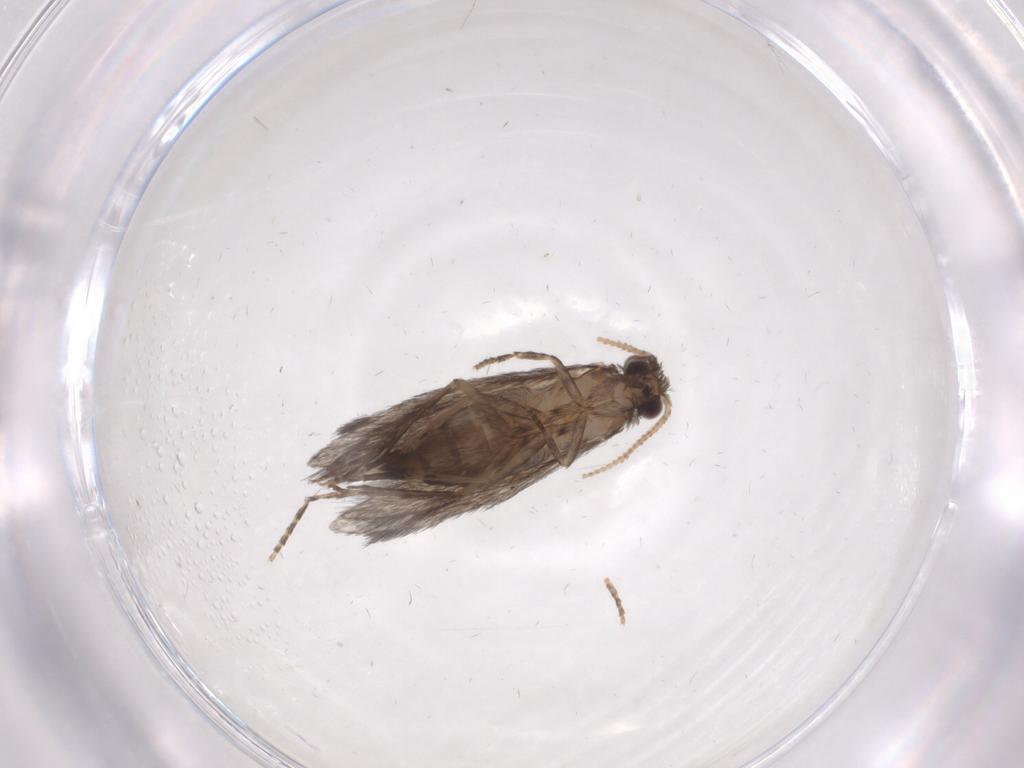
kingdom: Animalia
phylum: Arthropoda
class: Insecta
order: Trichoptera
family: Hydroptilidae
